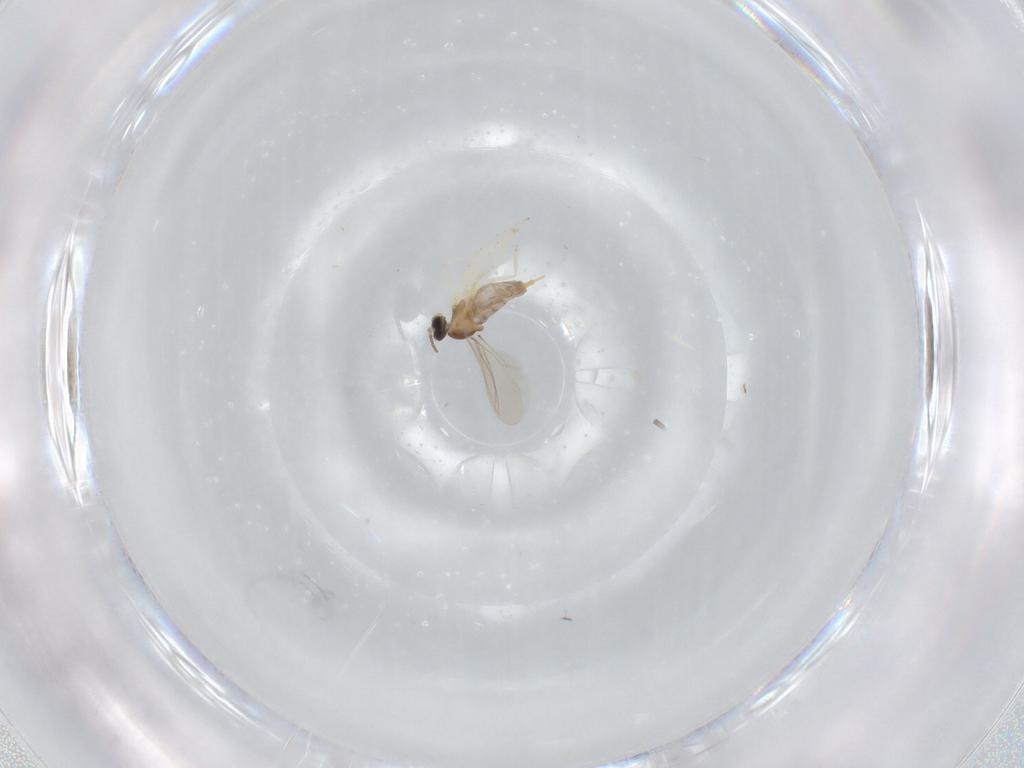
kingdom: Animalia
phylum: Arthropoda
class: Insecta
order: Diptera
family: Cecidomyiidae
